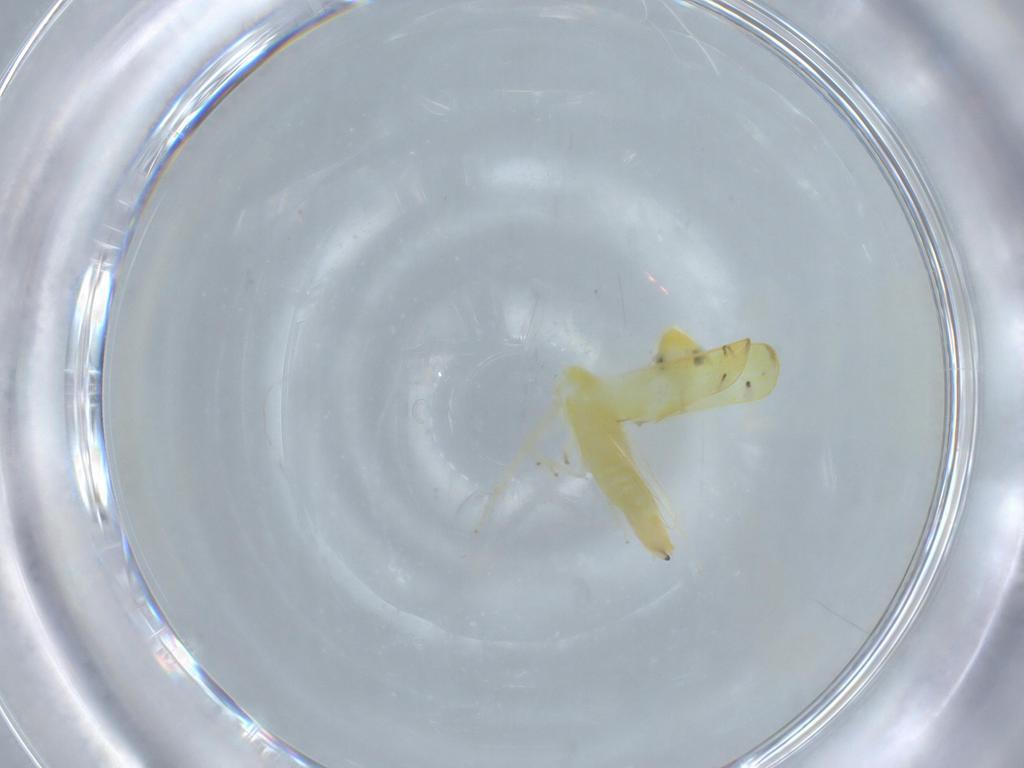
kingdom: Animalia
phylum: Arthropoda
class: Insecta
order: Hemiptera
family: Cicadellidae
